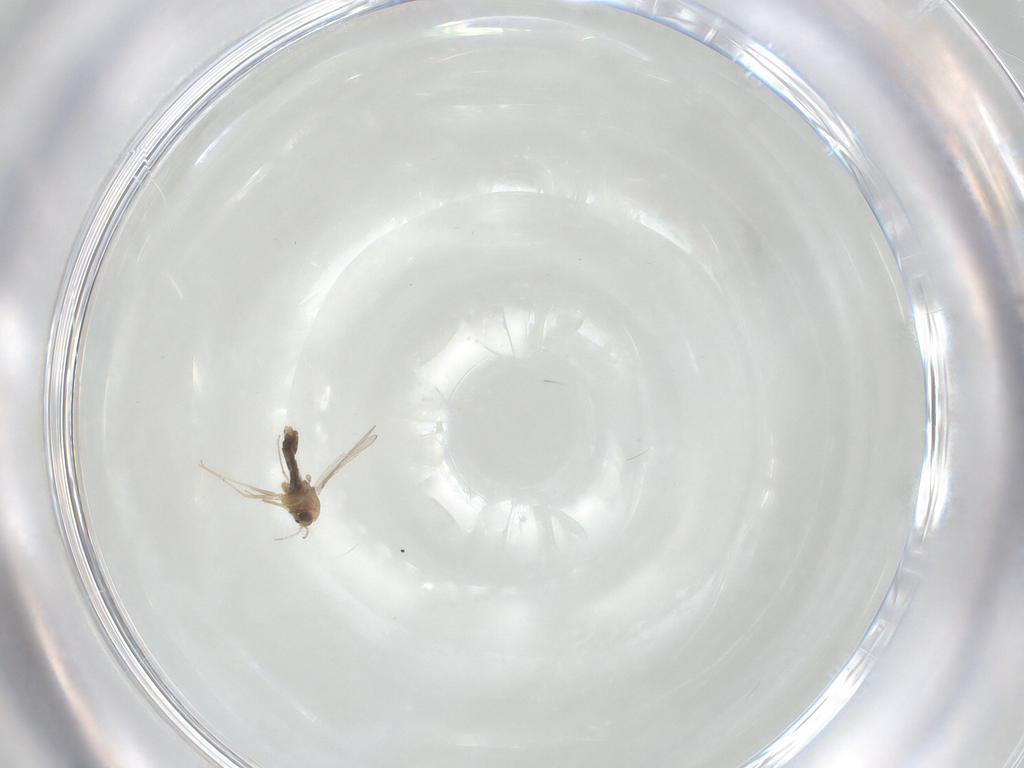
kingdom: Animalia
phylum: Arthropoda
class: Insecta
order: Diptera
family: Chironomidae
